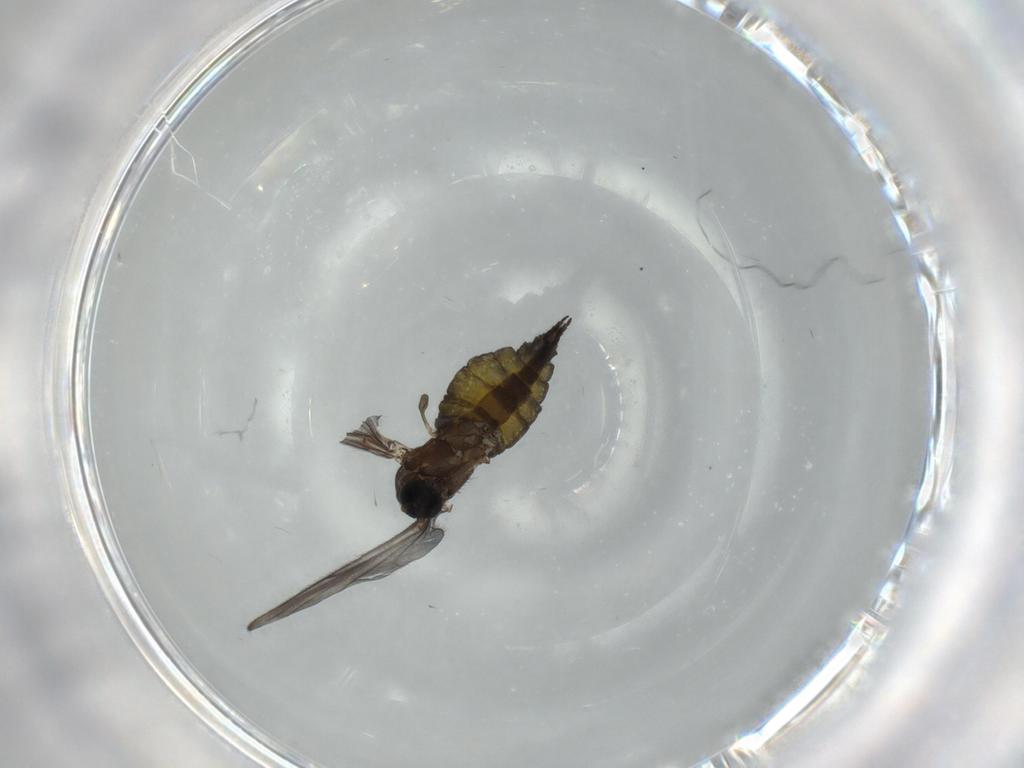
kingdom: Animalia
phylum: Arthropoda
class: Insecta
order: Diptera
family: Sciaridae
